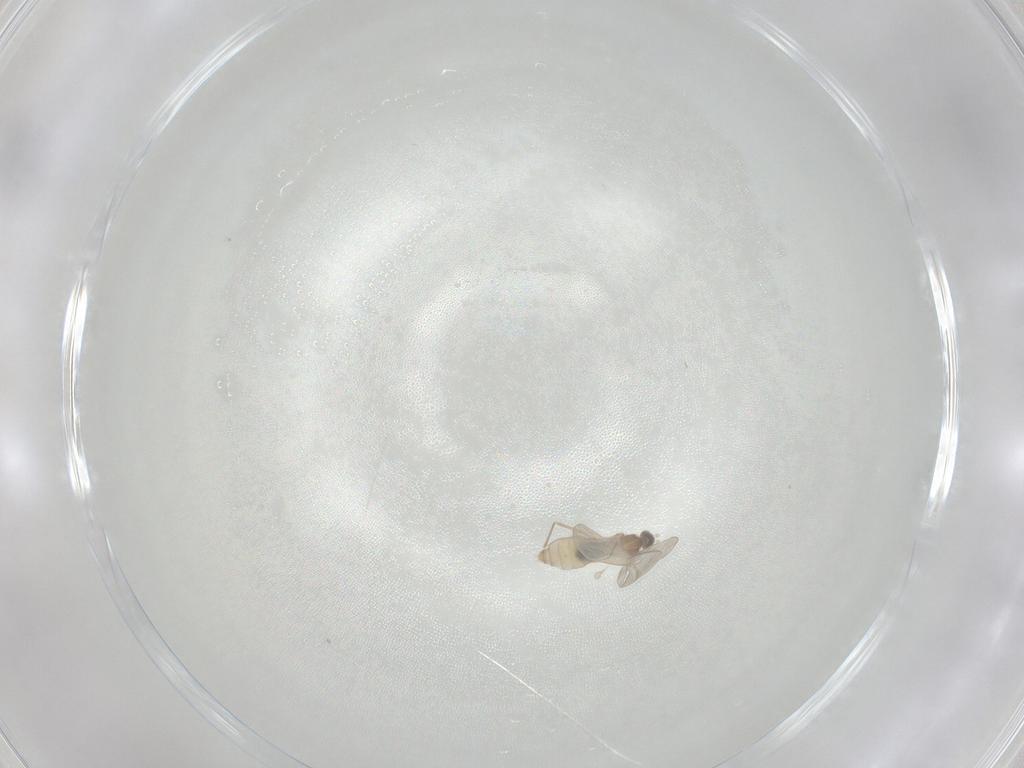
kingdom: Animalia
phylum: Arthropoda
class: Insecta
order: Diptera
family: Cecidomyiidae
